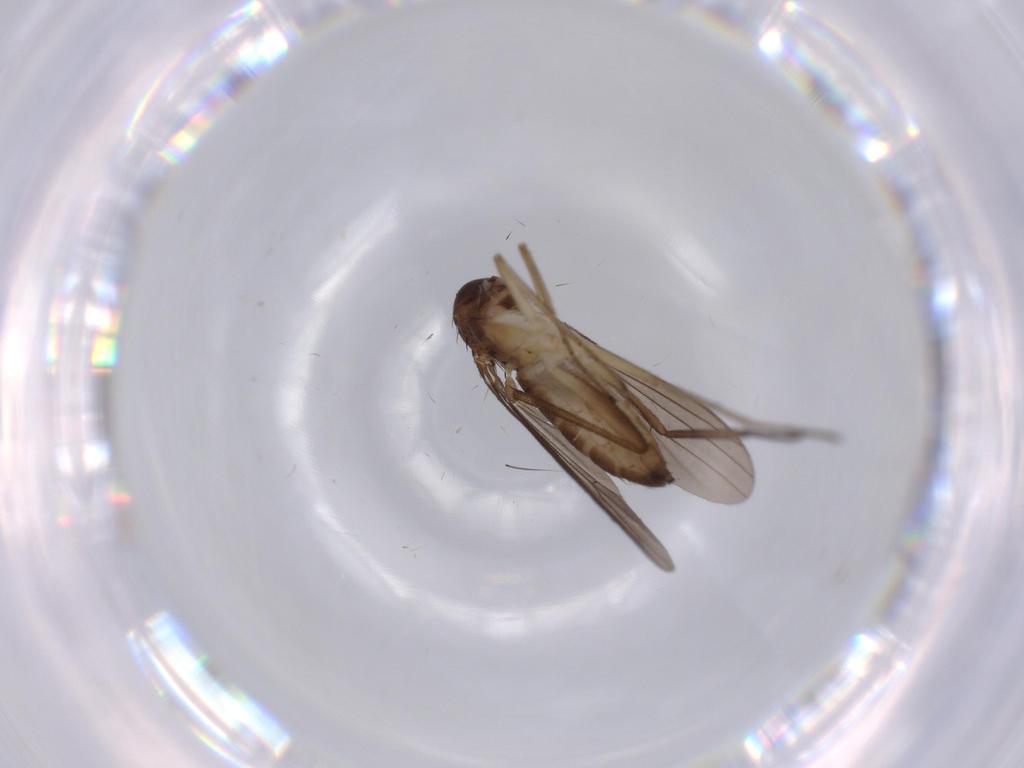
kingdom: Animalia
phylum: Arthropoda
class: Insecta
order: Diptera
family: Dolichopodidae
